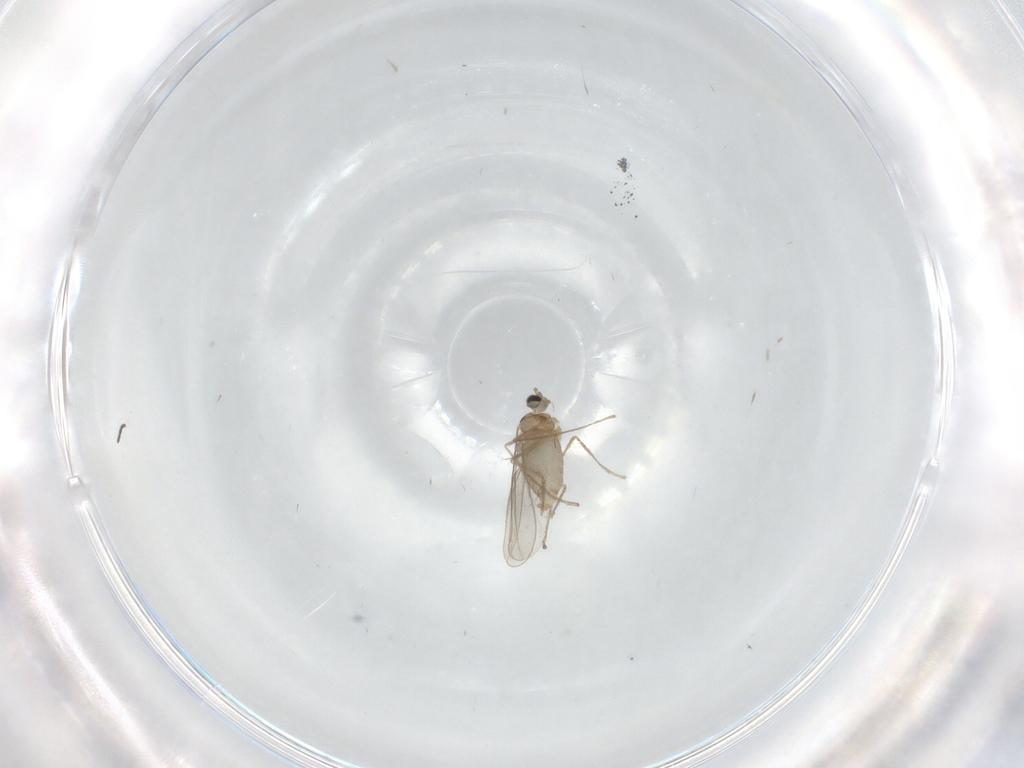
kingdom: Animalia
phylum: Arthropoda
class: Insecta
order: Diptera
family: Cecidomyiidae
